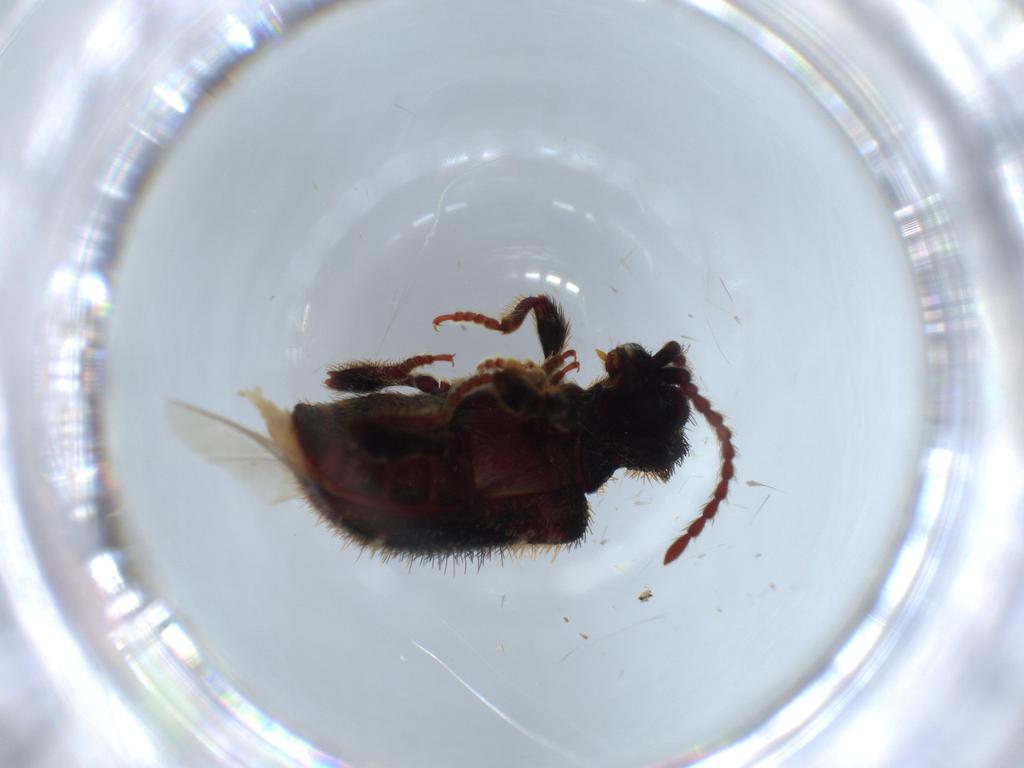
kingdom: Animalia
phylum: Arthropoda
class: Insecta
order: Coleoptera
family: Ptinidae
